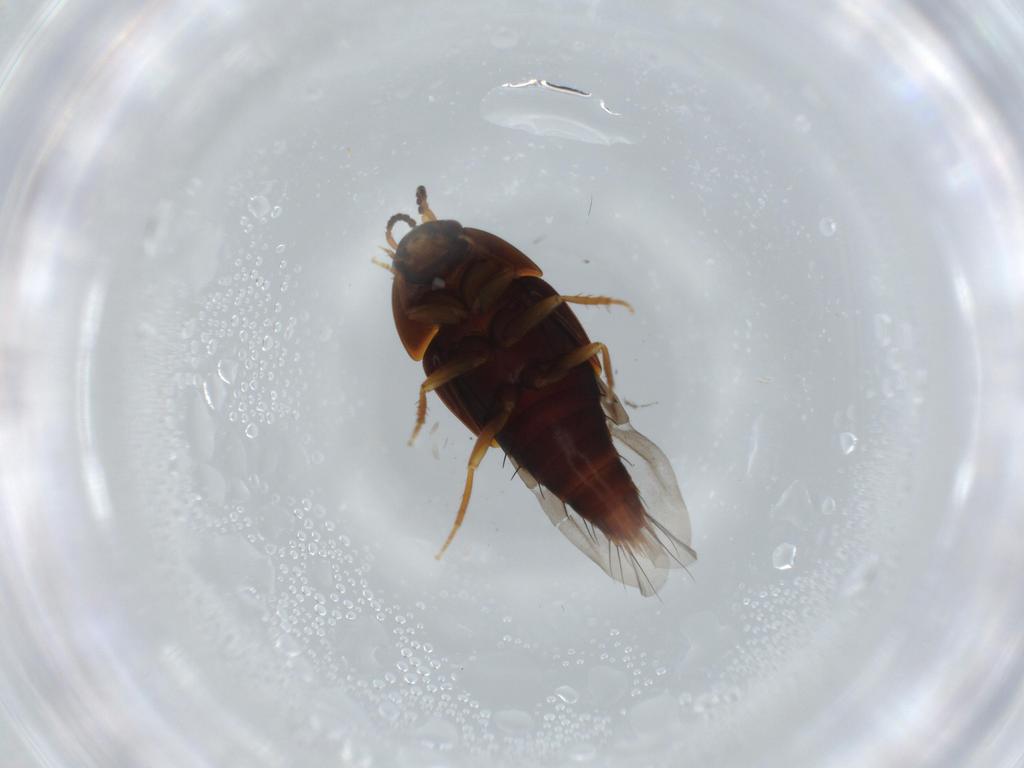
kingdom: Animalia
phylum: Arthropoda
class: Insecta
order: Coleoptera
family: Staphylinidae
